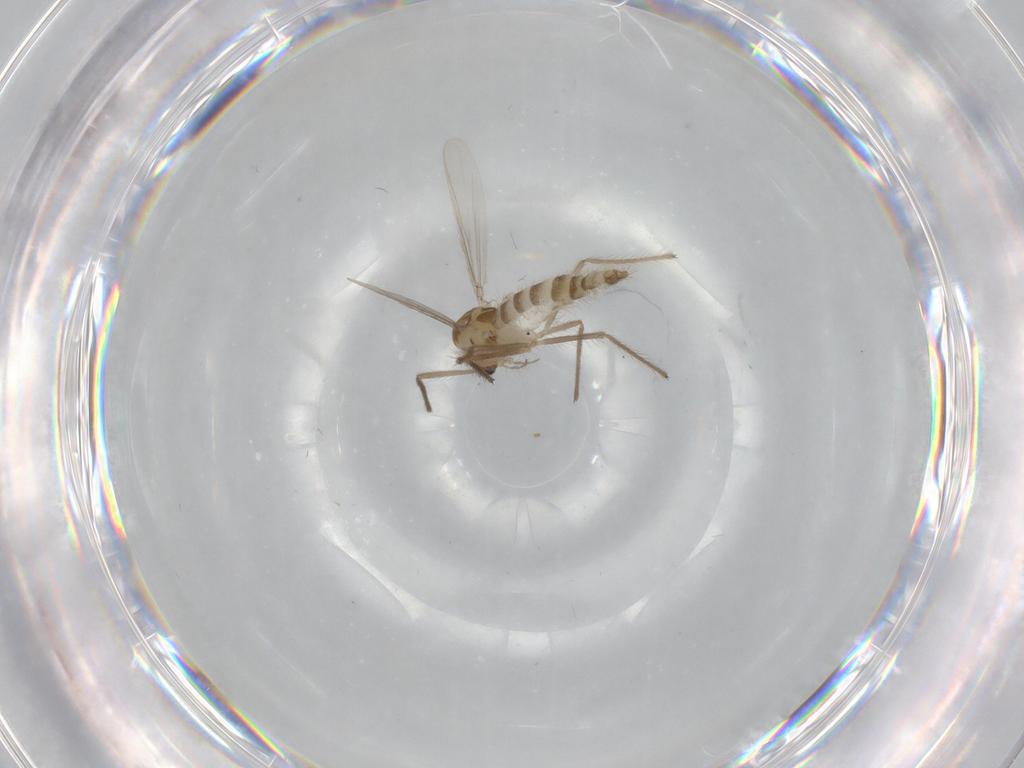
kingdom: Animalia
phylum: Arthropoda
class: Insecta
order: Diptera
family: Chironomidae
